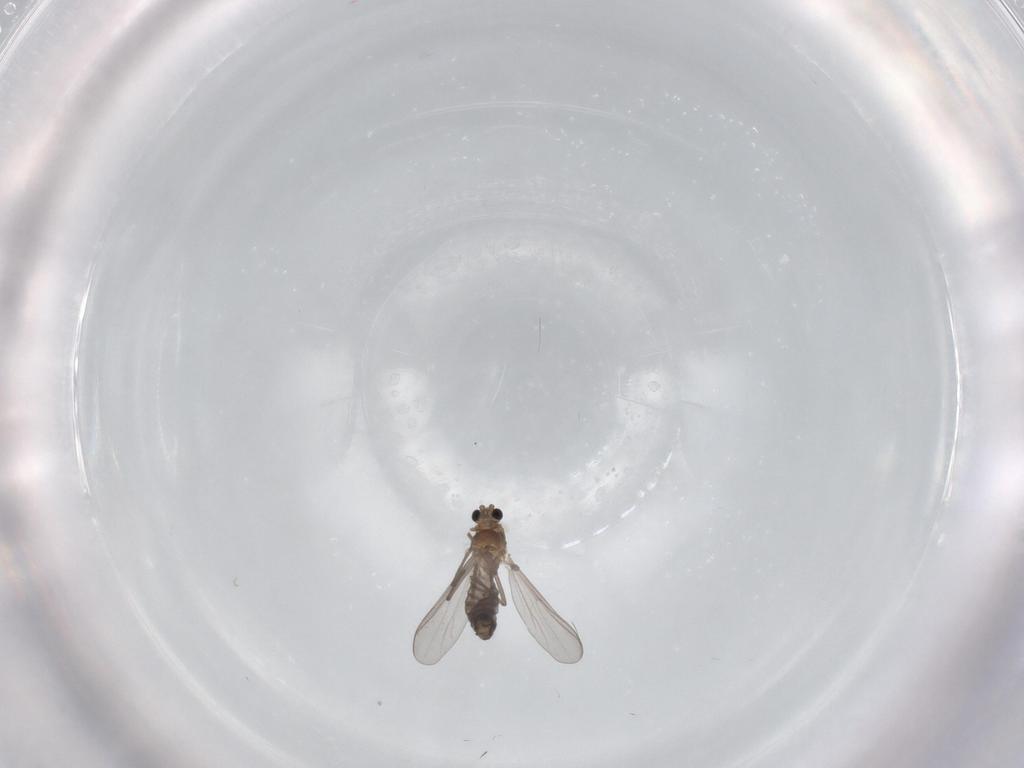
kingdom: Animalia
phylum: Arthropoda
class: Insecta
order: Diptera
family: Chironomidae
